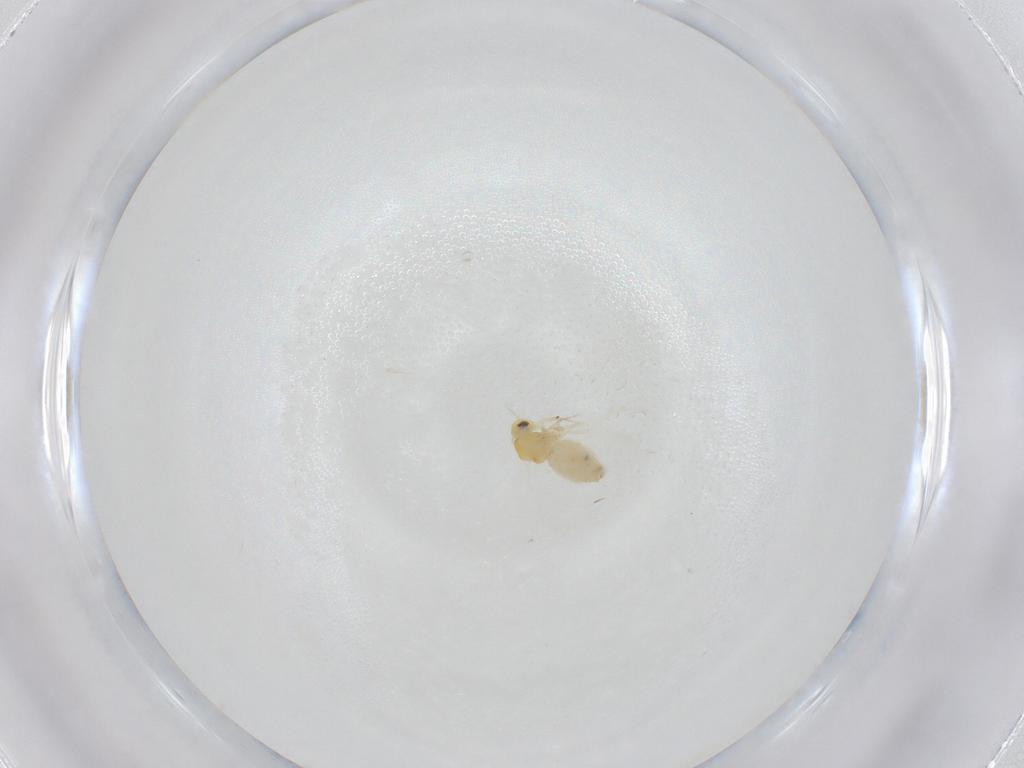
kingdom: Animalia
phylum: Arthropoda
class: Insecta
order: Hemiptera
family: Aleyrodidae
